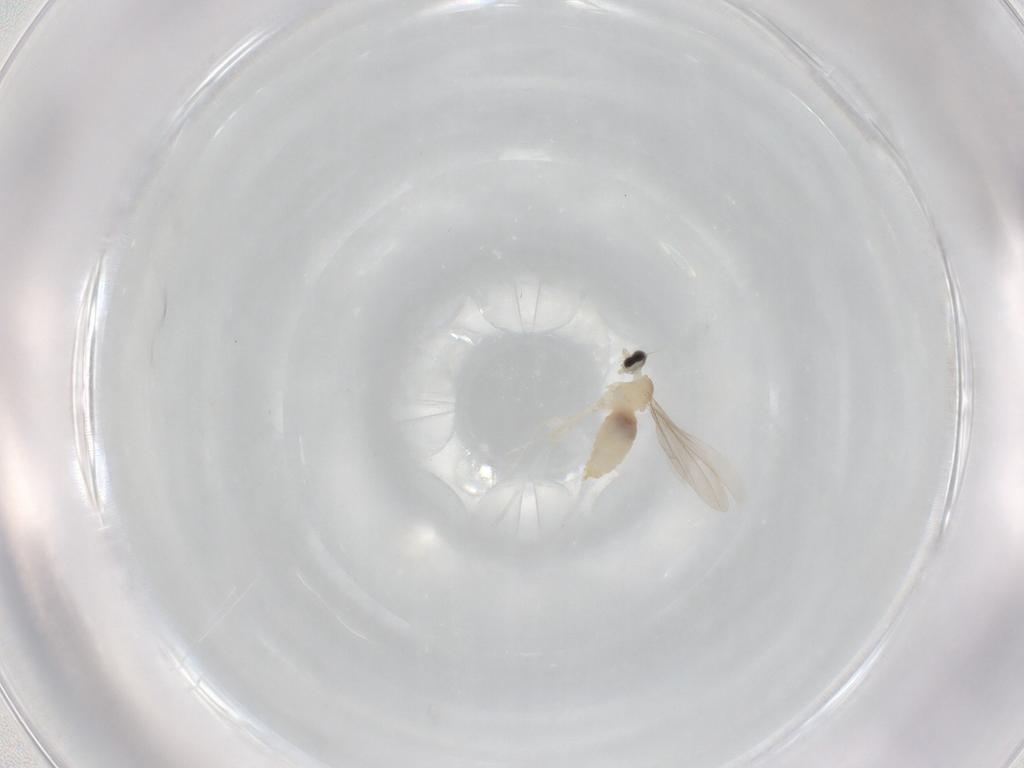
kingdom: Animalia
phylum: Arthropoda
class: Insecta
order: Diptera
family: Cecidomyiidae
